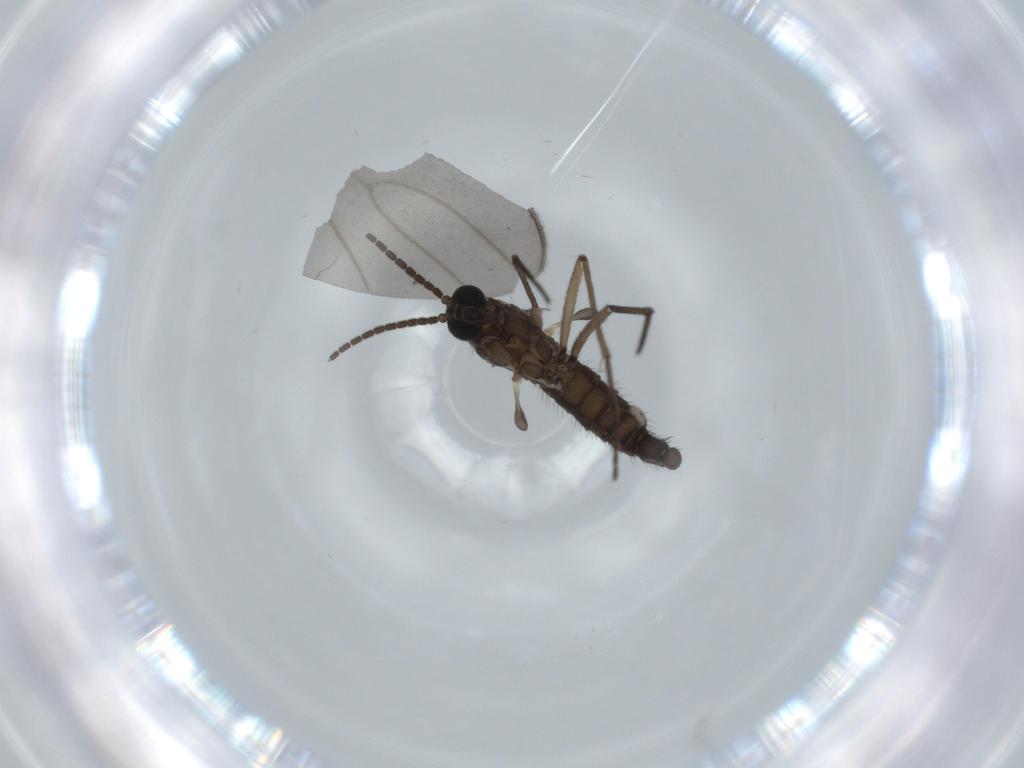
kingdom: Animalia
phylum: Arthropoda
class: Insecta
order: Diptera
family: Sciaridae
